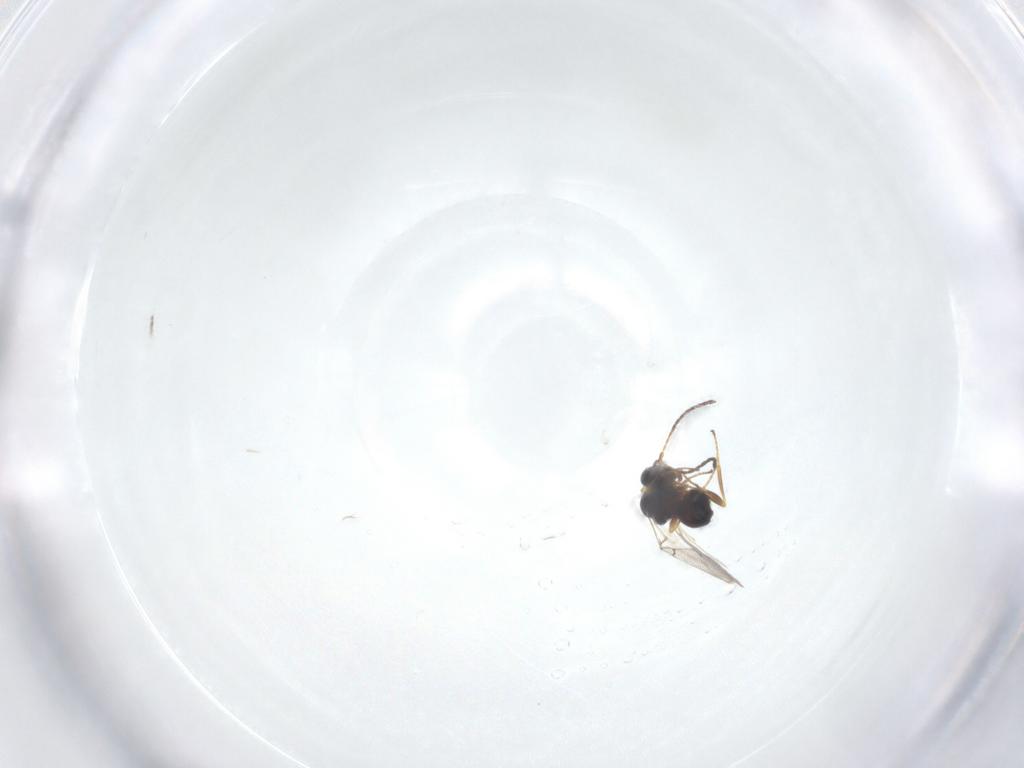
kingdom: Animalia
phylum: Arthropoda
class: Insecta
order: Hymenoptera
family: Figitidae
